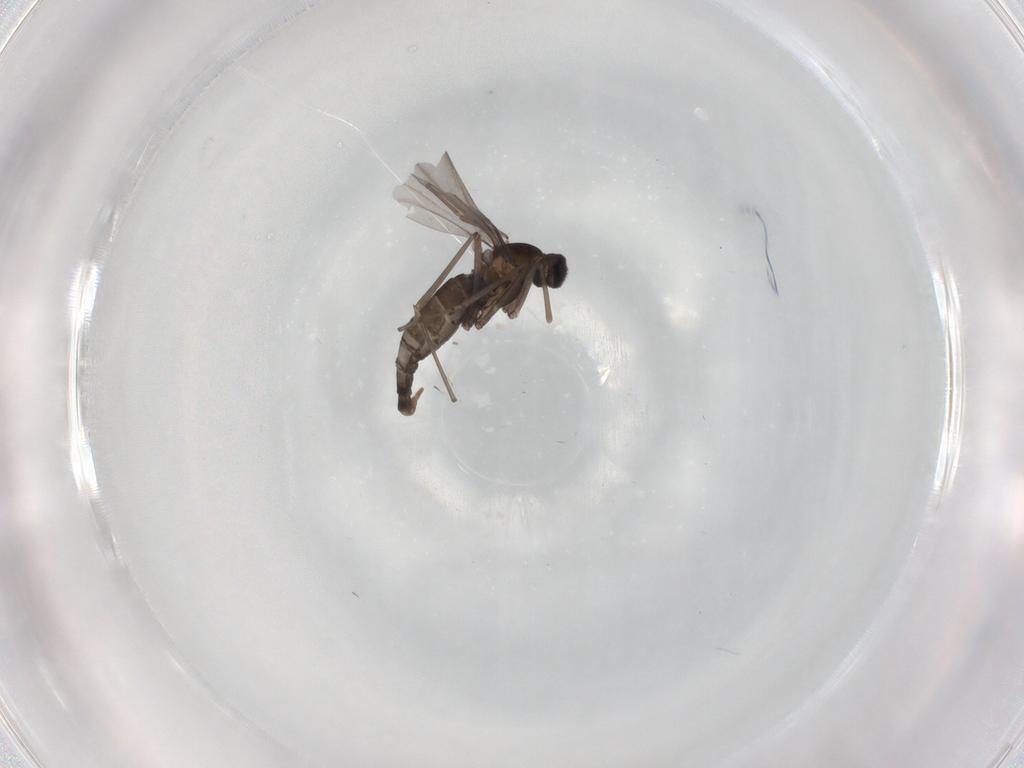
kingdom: Animalia
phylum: Arthropoda
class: Insecta
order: Diptera
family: Cecidomyiidae
